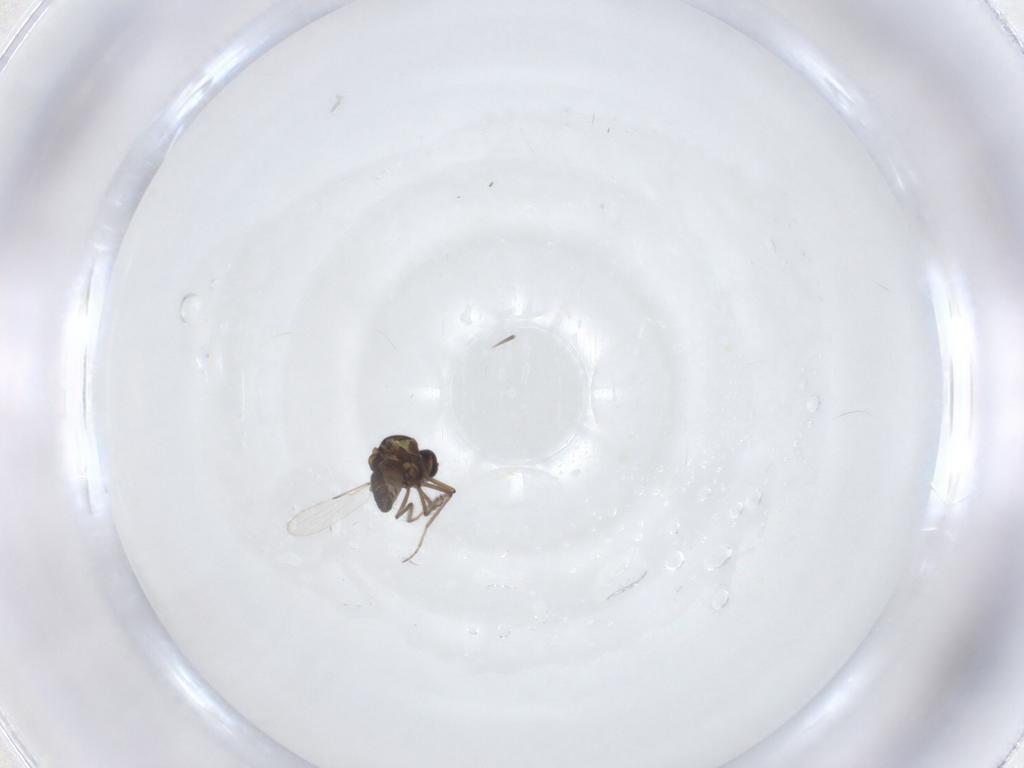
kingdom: Animalia
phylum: Arthropoda
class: Insecta
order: Diptera
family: Ceratopogonidae
